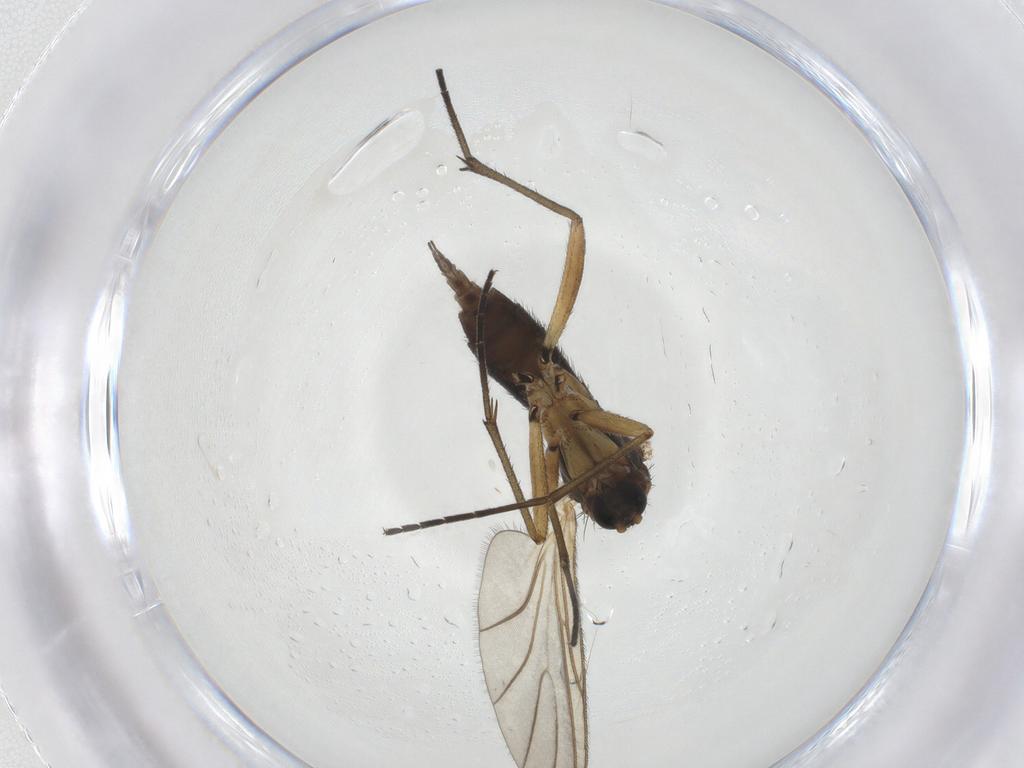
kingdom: Animalia
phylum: Arthropoda
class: Insecta
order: Diptera
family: Sciaridae
